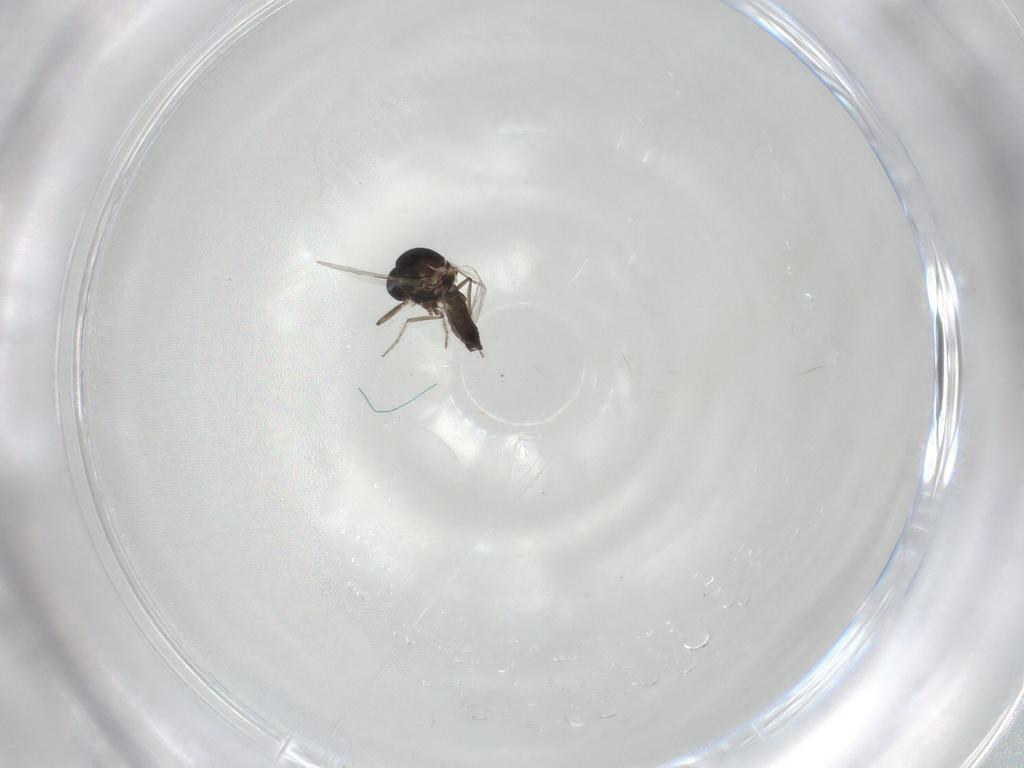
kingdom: Animalia
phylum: Arthropoda
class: Insecta
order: Diptera
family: Ceratopogonidae
